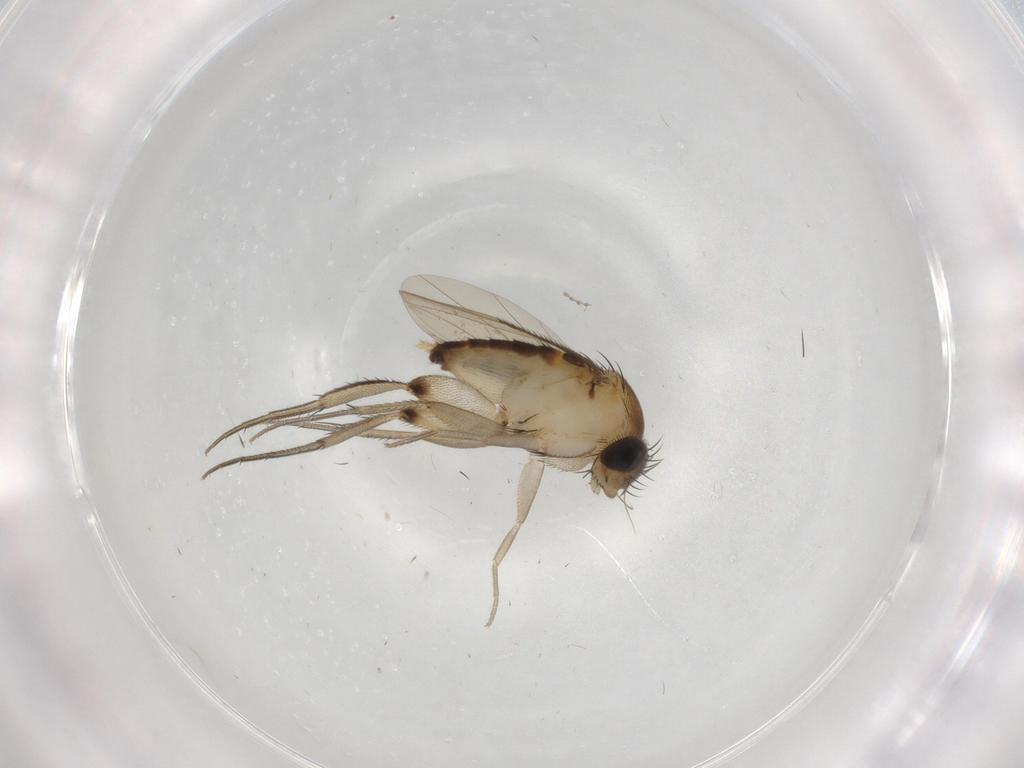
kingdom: Animalia
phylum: Arthropoda
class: Insecta
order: Diptera
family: Phoridae
